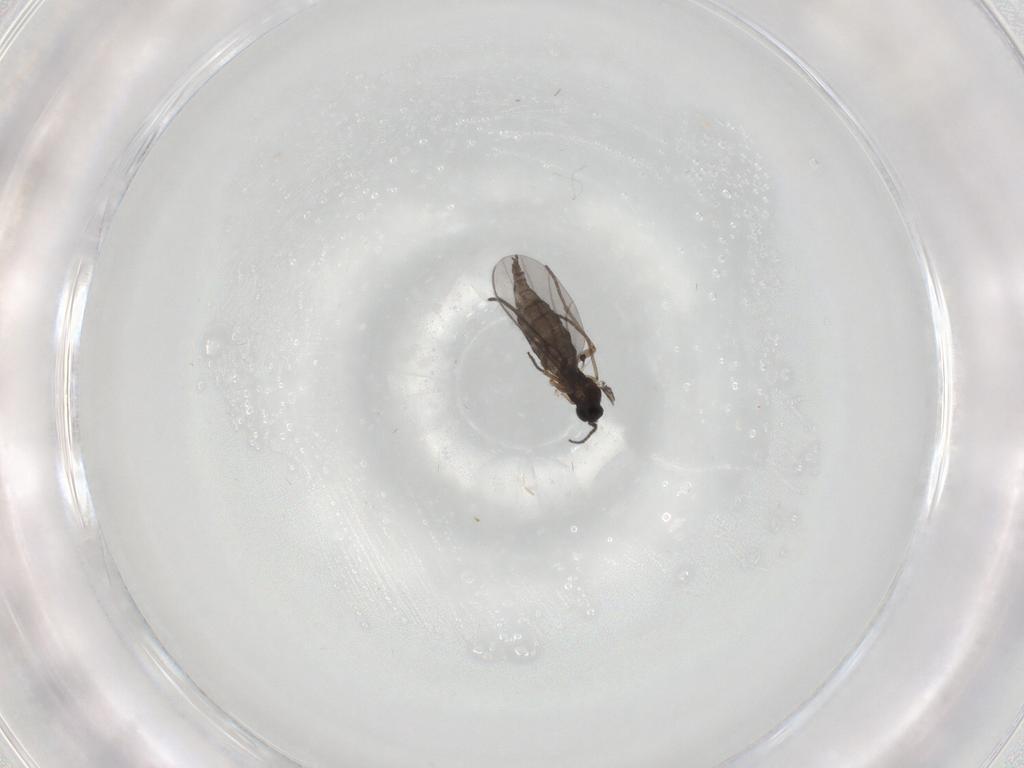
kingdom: Animalia
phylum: Arthropoda
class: Insecta
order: Diptera
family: Sciaridae
